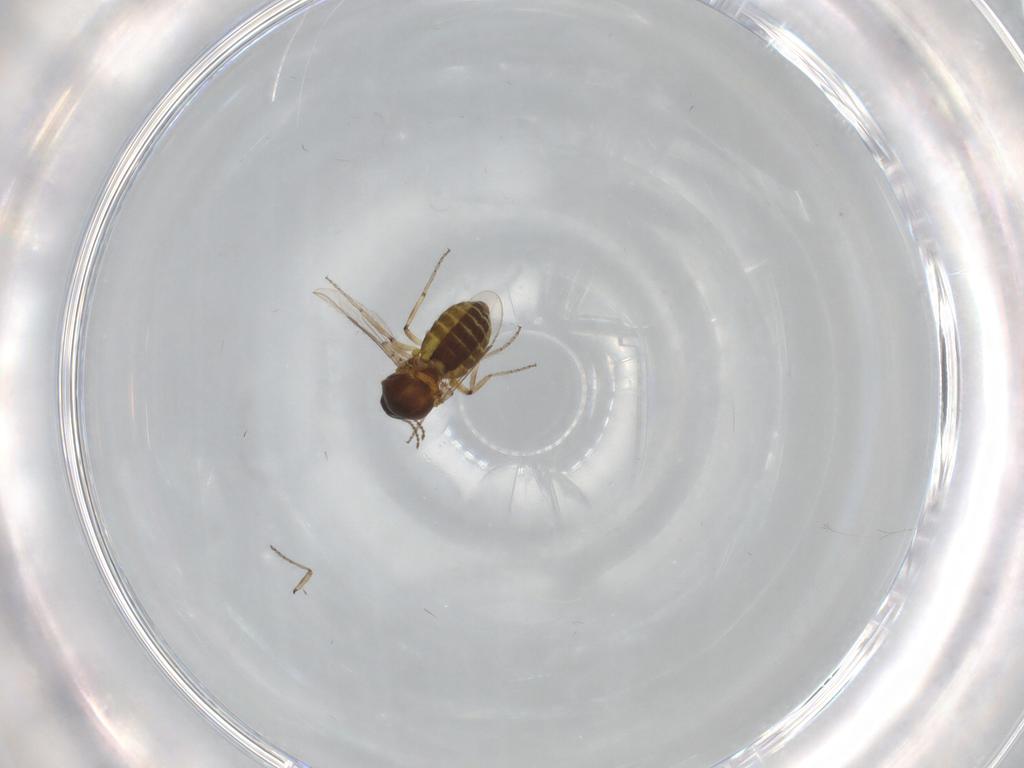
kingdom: Animalia
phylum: Arthropoda
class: Insecta
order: Diptera
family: Ceratopogonidae
